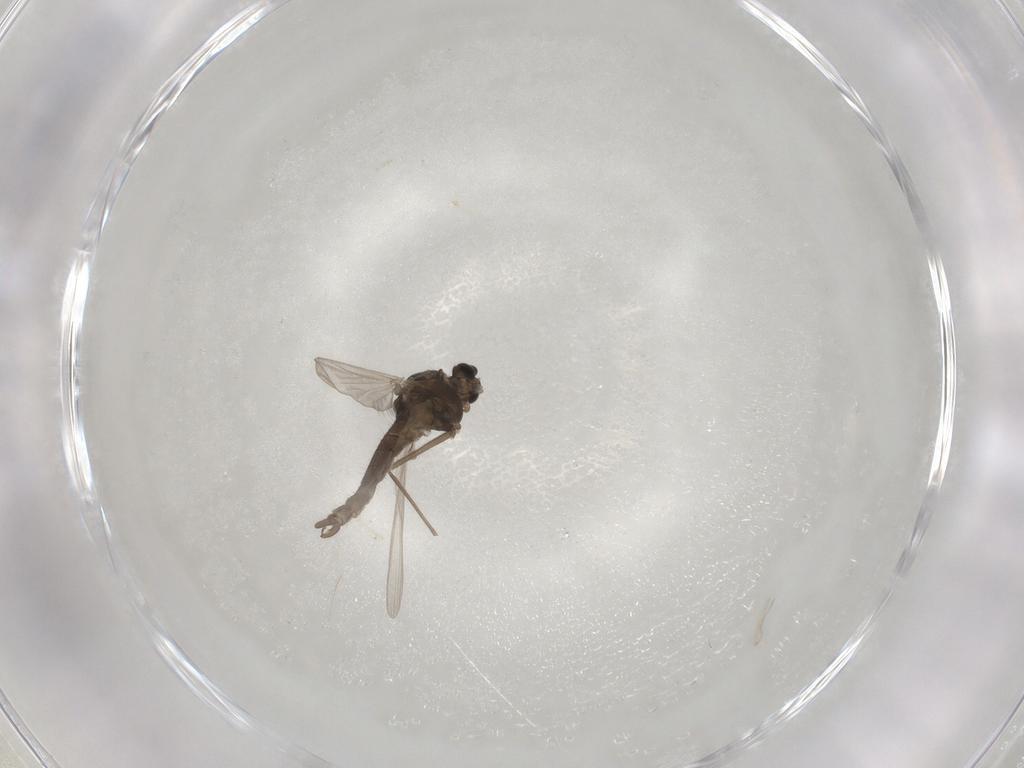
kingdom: Animalia
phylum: Arthropoda
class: Insecta
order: Diptera
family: Chironomidae
